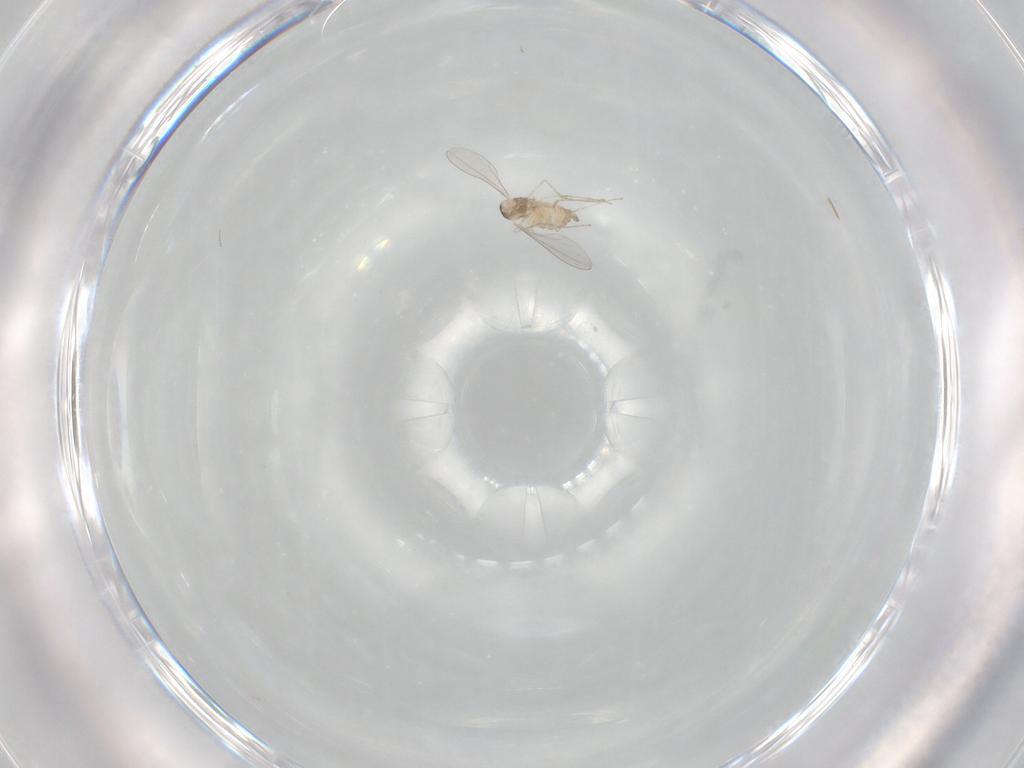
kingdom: Animalia
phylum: Arthropoda
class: Insecta
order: Diptera
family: Cecidomyiidae
